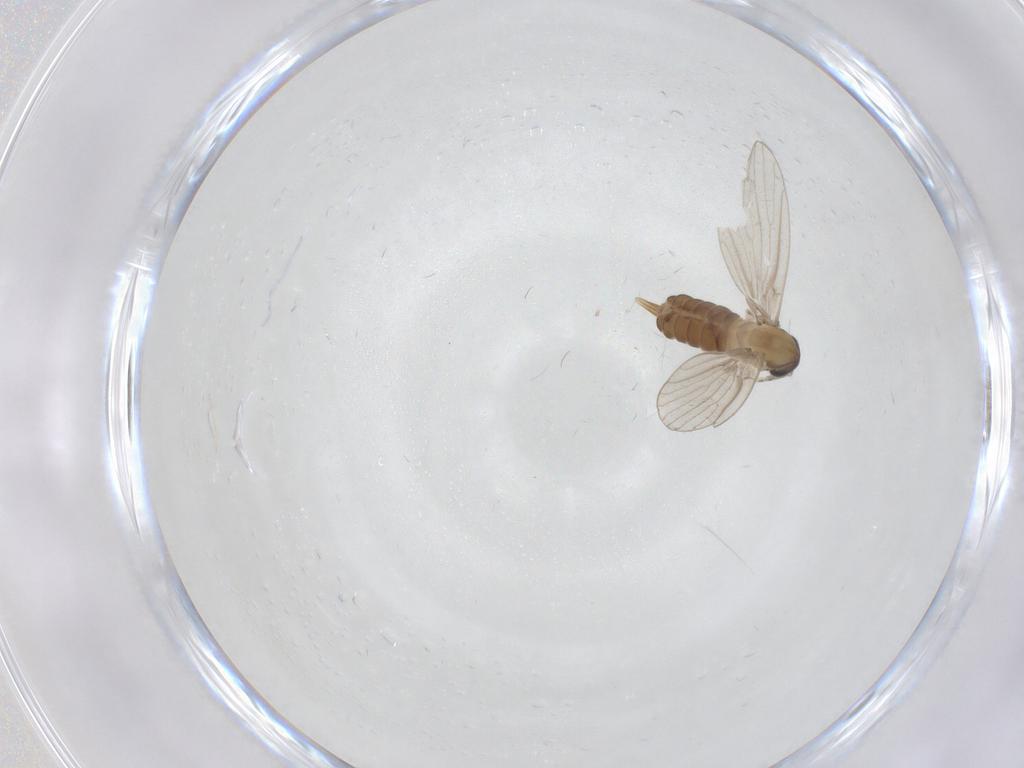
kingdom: Animalia
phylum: Arthropoda
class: Insecta
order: Diptera
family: Psychodidae
